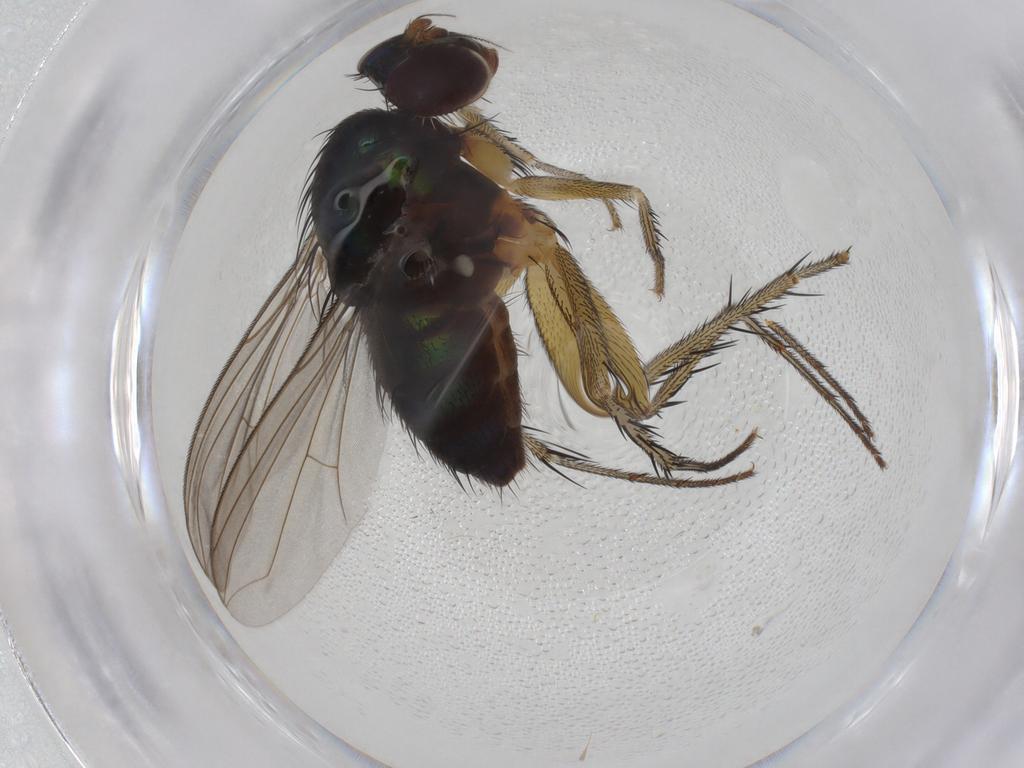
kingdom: Animalia
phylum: Arthropoda
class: Insecta
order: Diptera
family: Dolichopodidae
